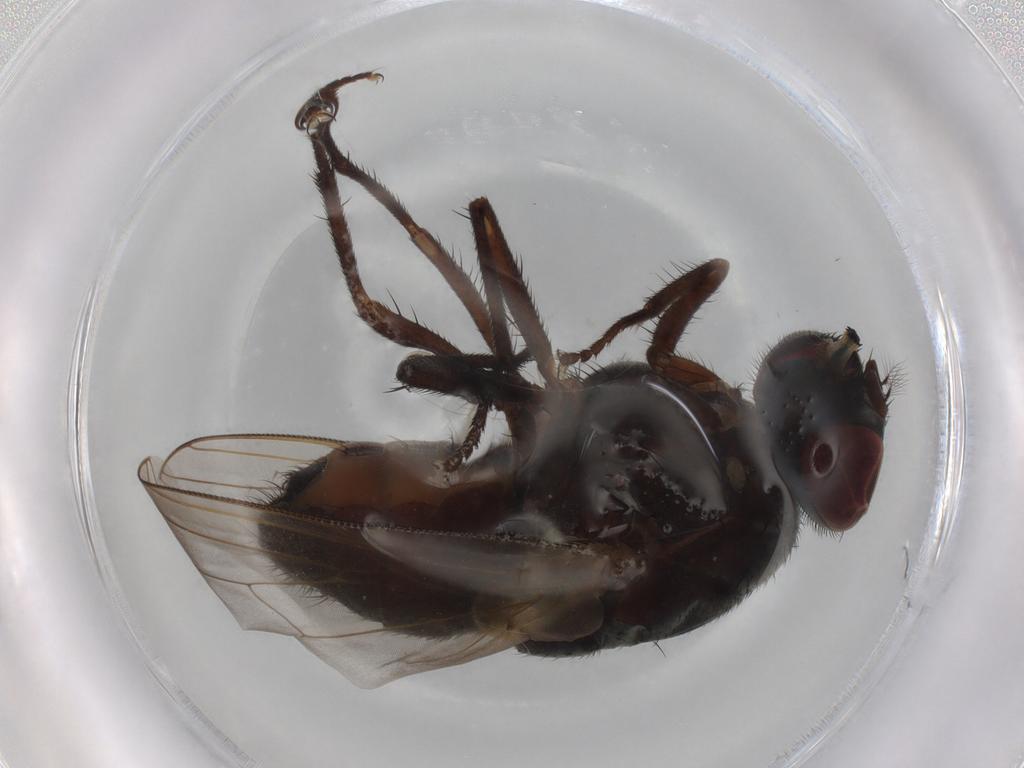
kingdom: Animalia
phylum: Arthropoda
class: Insecta
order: Diptera
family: Muscidae
